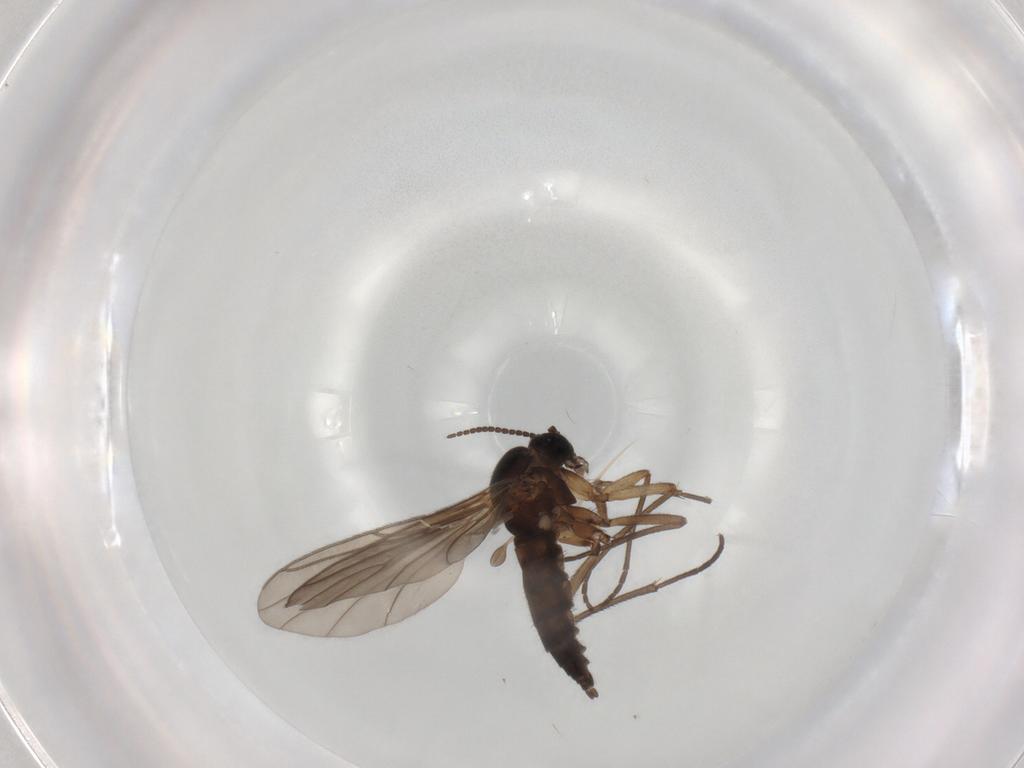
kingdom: Animalia
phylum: Arthropoda
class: Insecta
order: Diptera
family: Sciaridae
